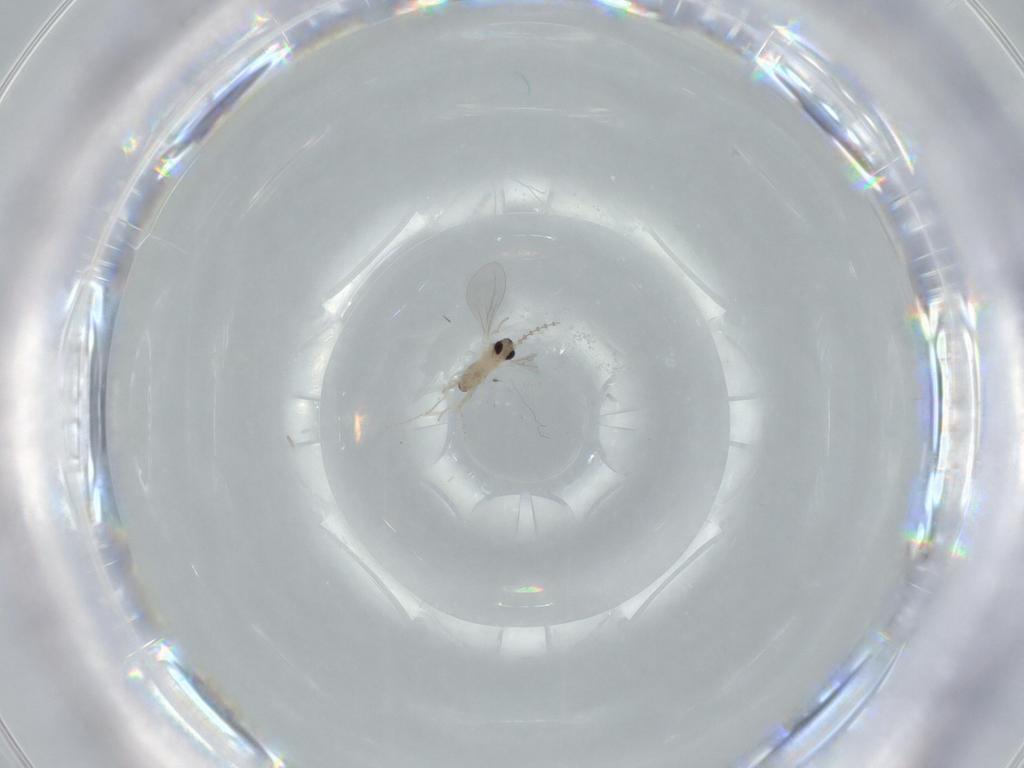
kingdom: Animalia
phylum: Arthropoda
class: Insecta
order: Diptera
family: Cecidomyiidae
